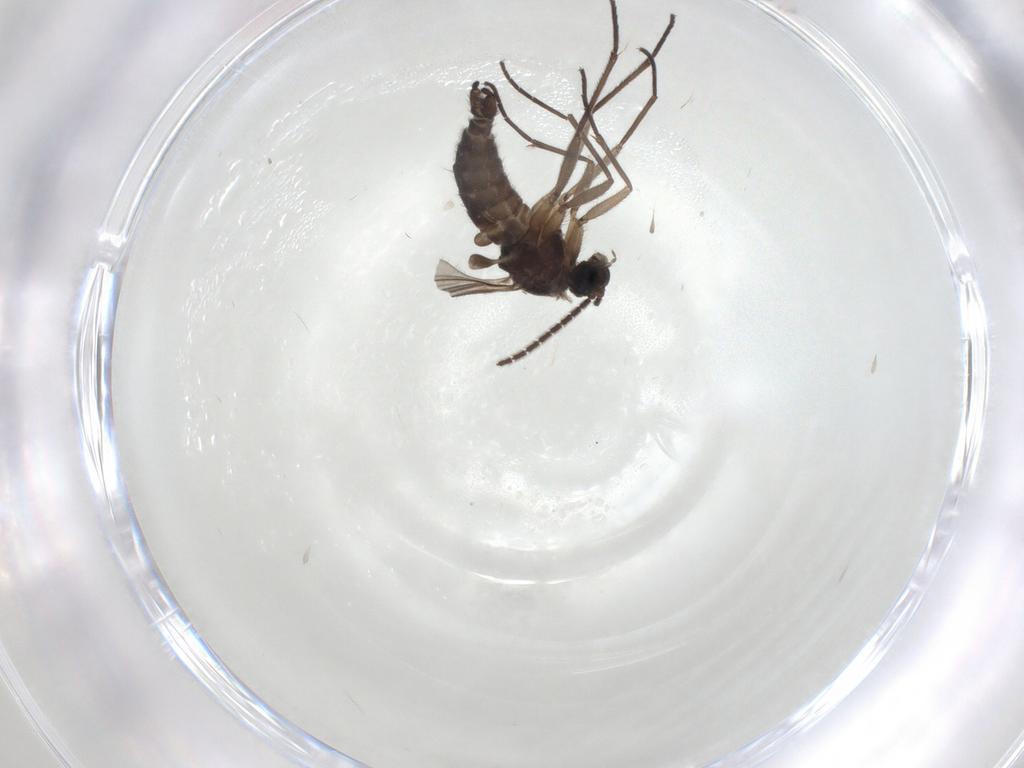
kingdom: Animalia
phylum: Arthropoda
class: Insecta
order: Diptera
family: Sciaridae
